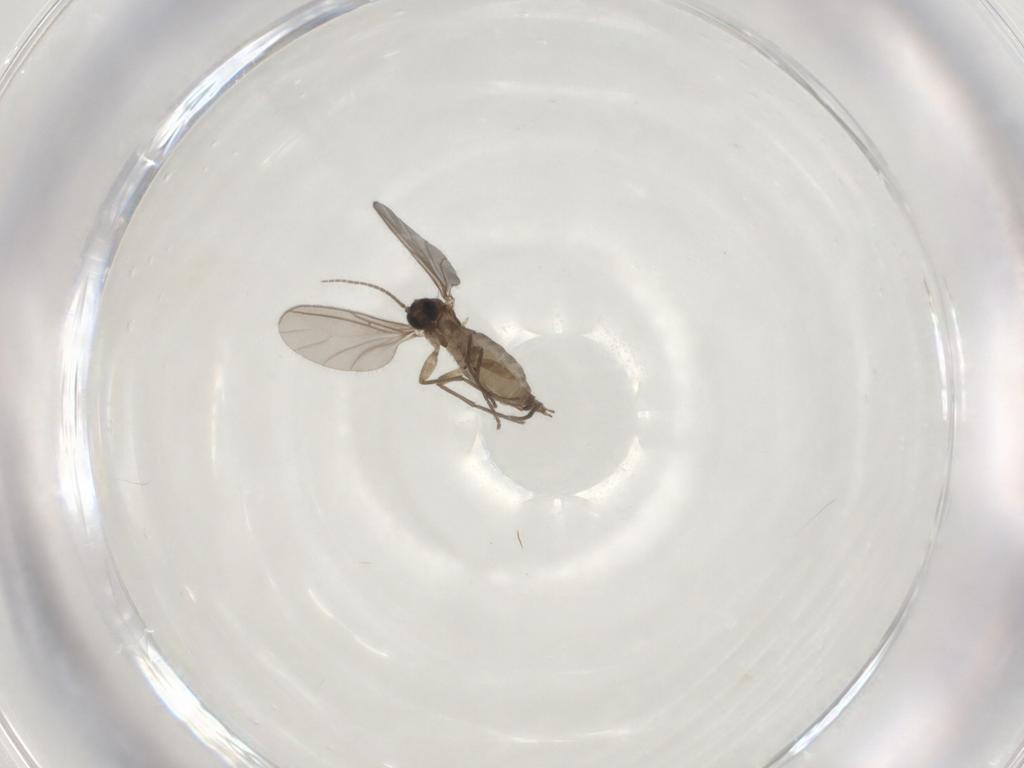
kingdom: Animalia
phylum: Arthropoda
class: Insecta
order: Diptera
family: Sciaridae
